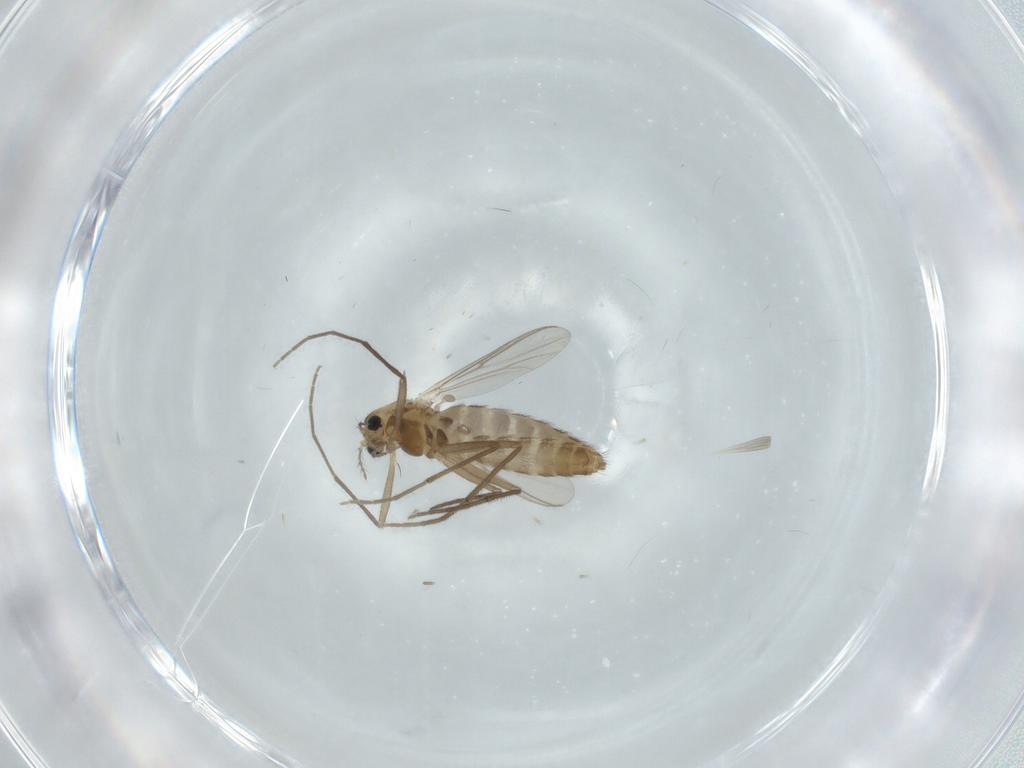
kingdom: Animalia
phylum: Arthropoda
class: Insecta
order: Diptera
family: Chironomidae
